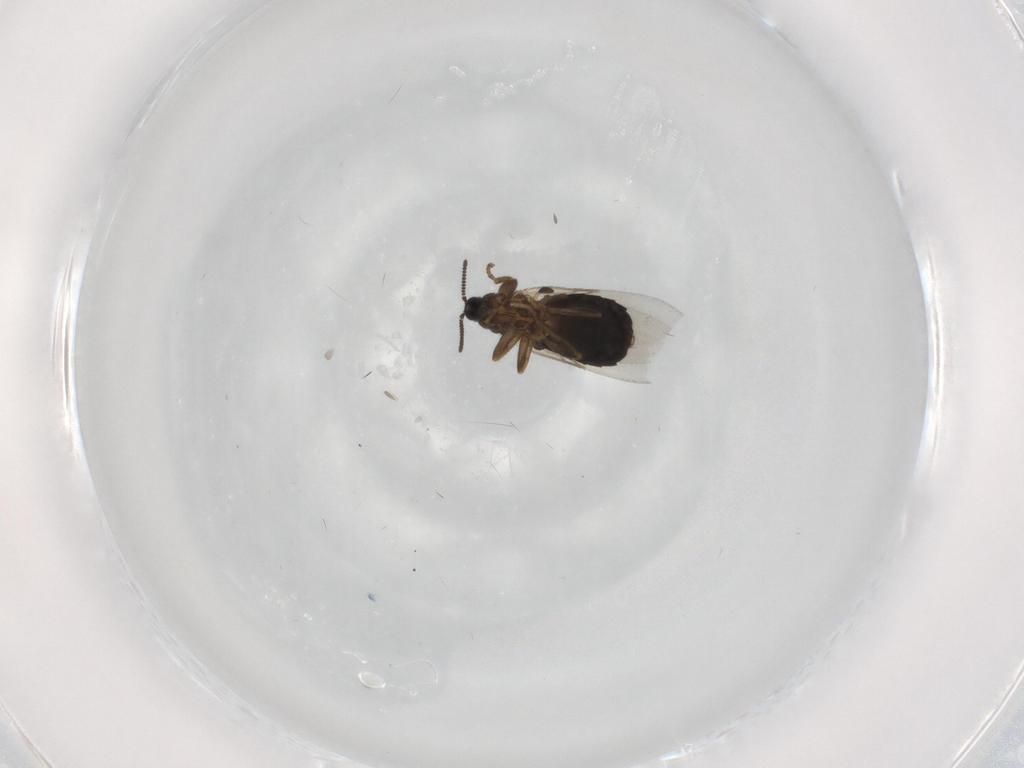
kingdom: Animalia
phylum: Arthropoda
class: Insecta
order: Diptera
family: Scatopsidae
